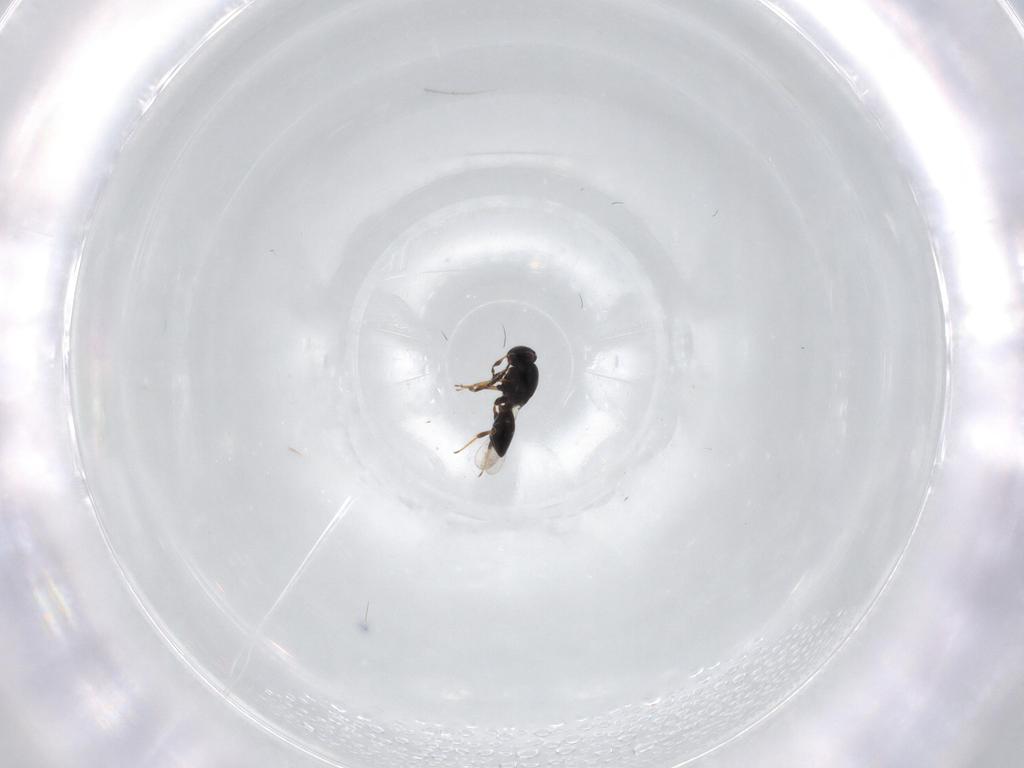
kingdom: Animalia
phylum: Arthropoda
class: Insecta
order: Hymenoptera
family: Platygastridae
